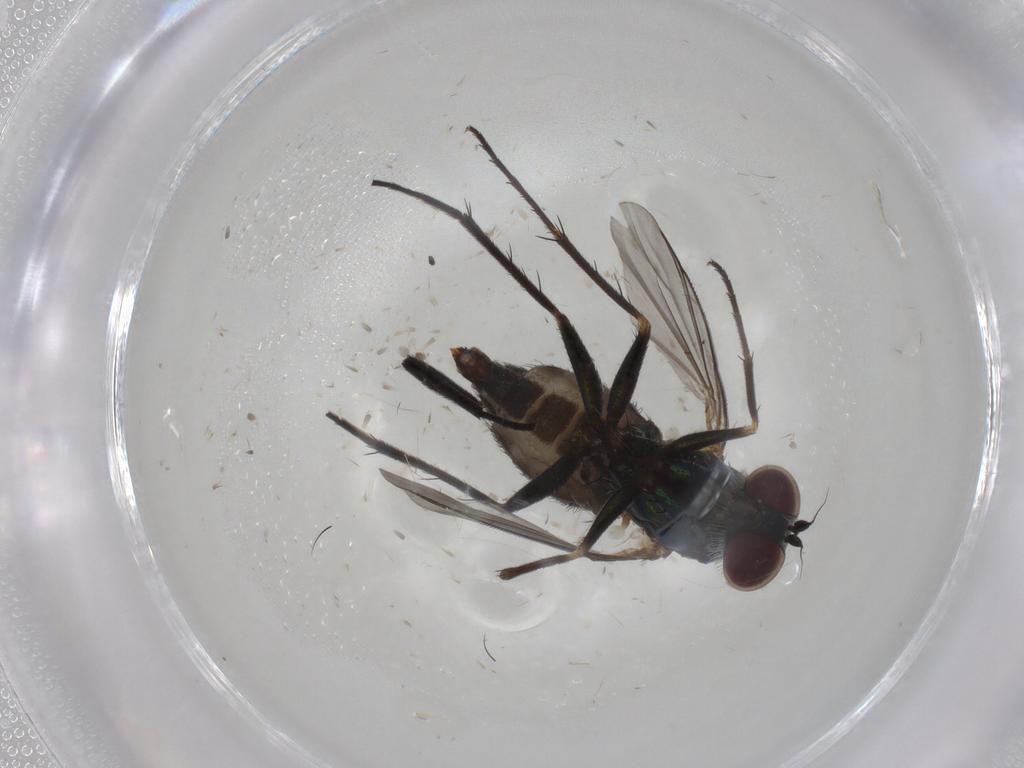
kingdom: Animalia
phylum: Arthropoda
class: Insecta
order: Diptera
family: Dolichopodidae
